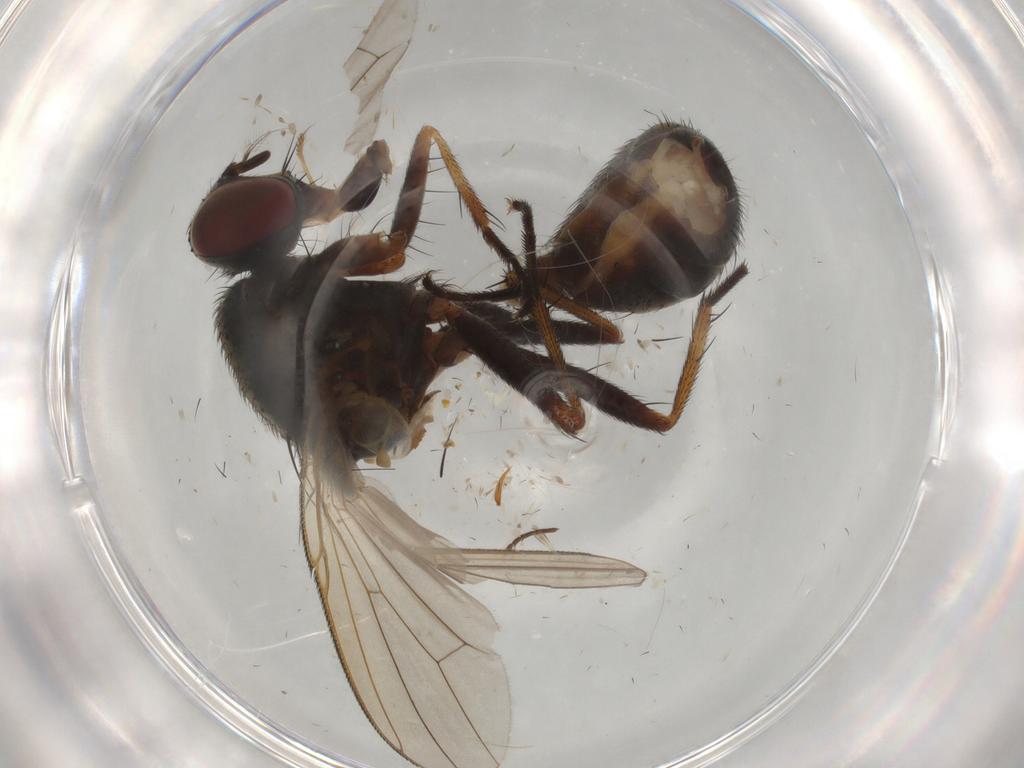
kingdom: Animalia
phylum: Arthropoda
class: Insecta
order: Diptera
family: Muscidae
